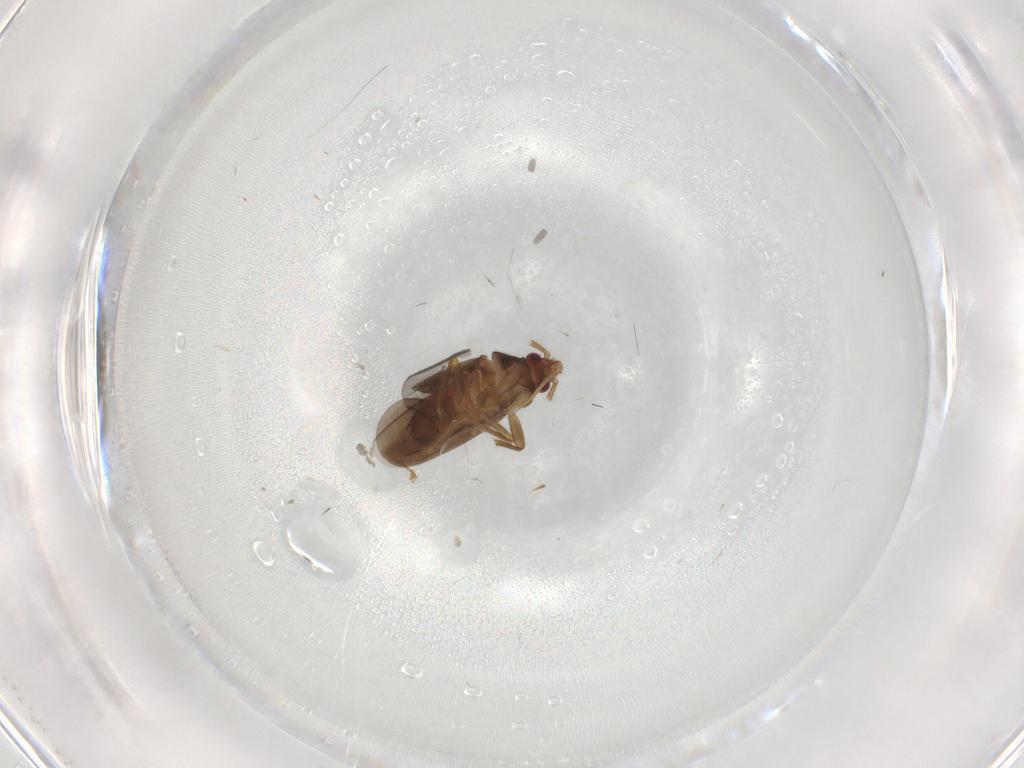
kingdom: Animalia
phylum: Arthropoda
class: Insecta
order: Hemiptera
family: Ceratocombidae
